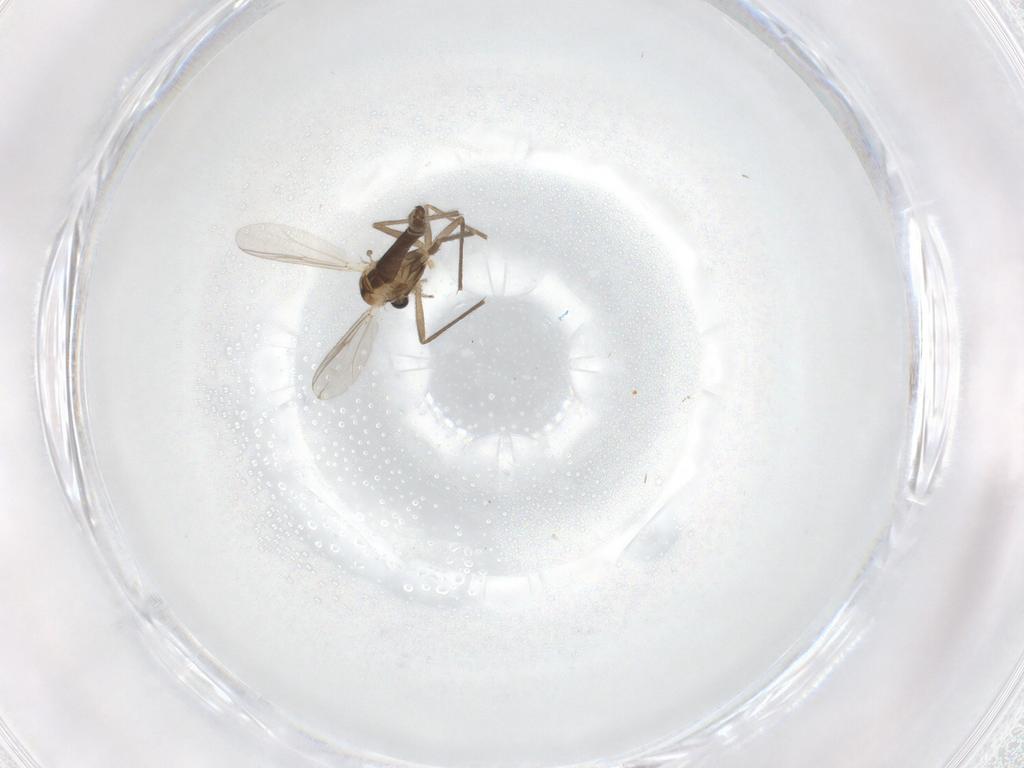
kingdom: Animalia
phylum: Arthropoda
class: Insecta
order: Diptera
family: Chironomidae
